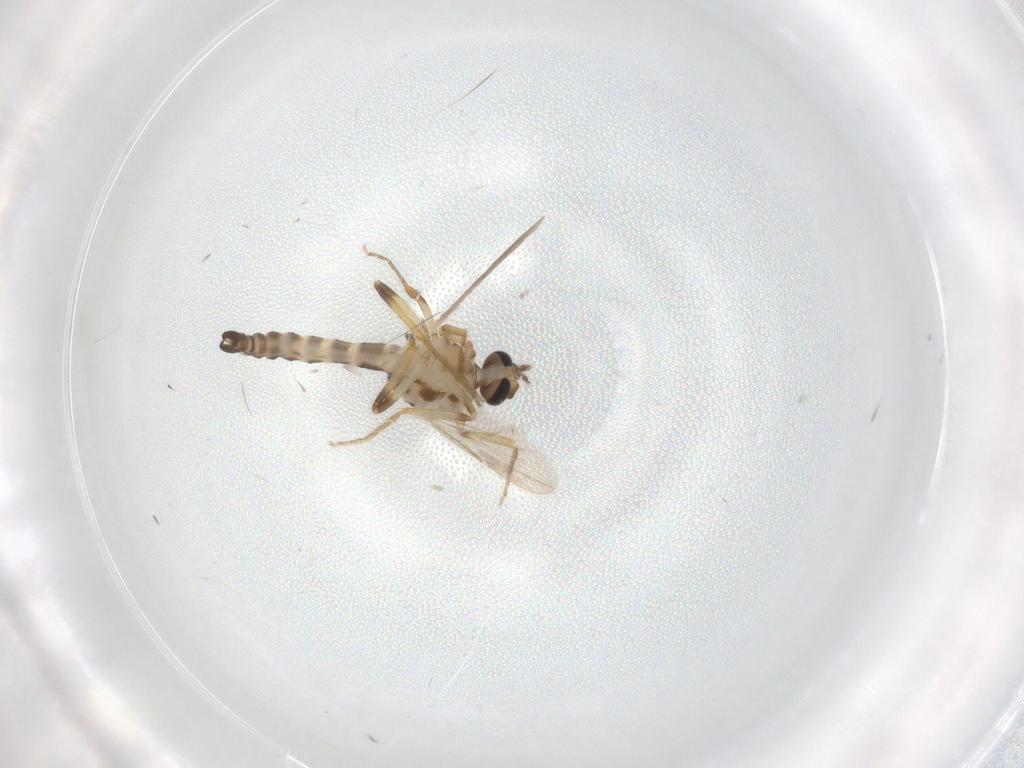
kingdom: Animalia
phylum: Arthropoda
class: Insecta
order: Diptera
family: Ceratopogonidae
